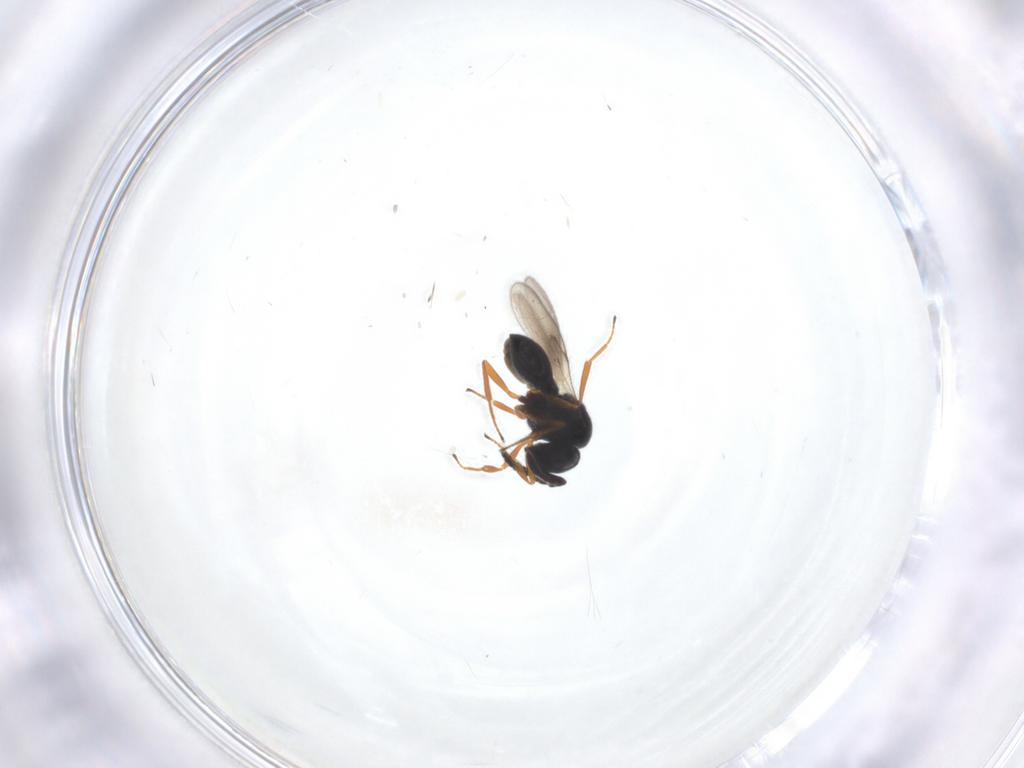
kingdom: Animalia
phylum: Arthropoda
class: Insecta
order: Hymenoptera
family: Scelionidae
